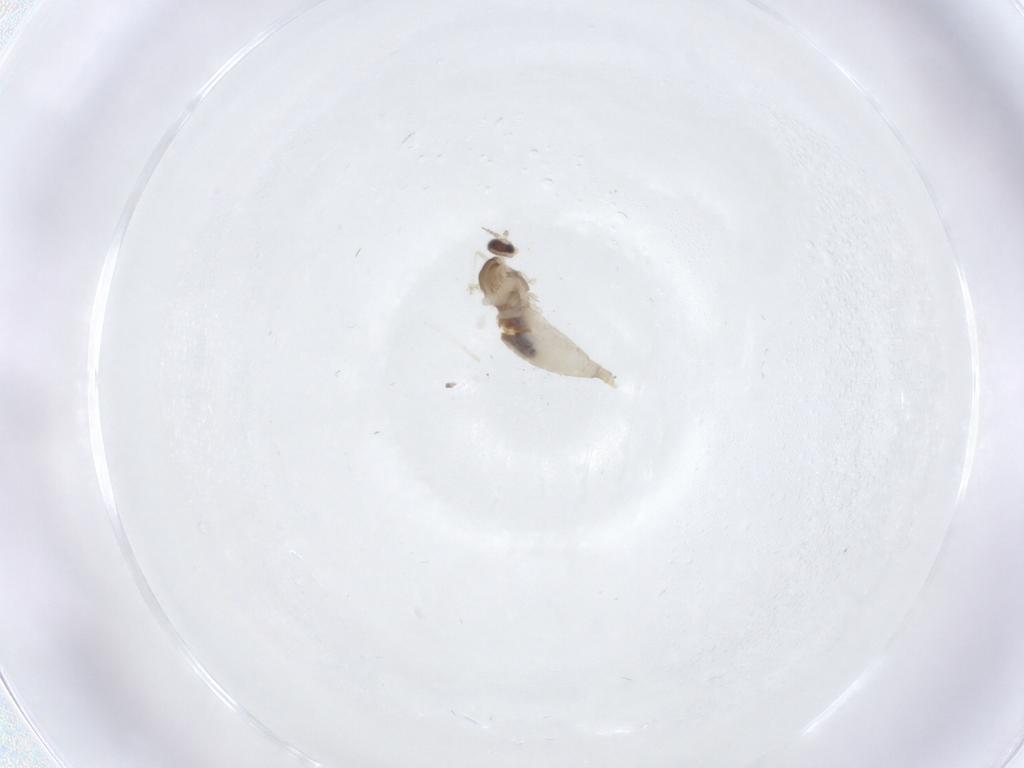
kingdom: Animalia
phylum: Arthropoda
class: Insecta
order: Diptera
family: Cecidomyiidae
